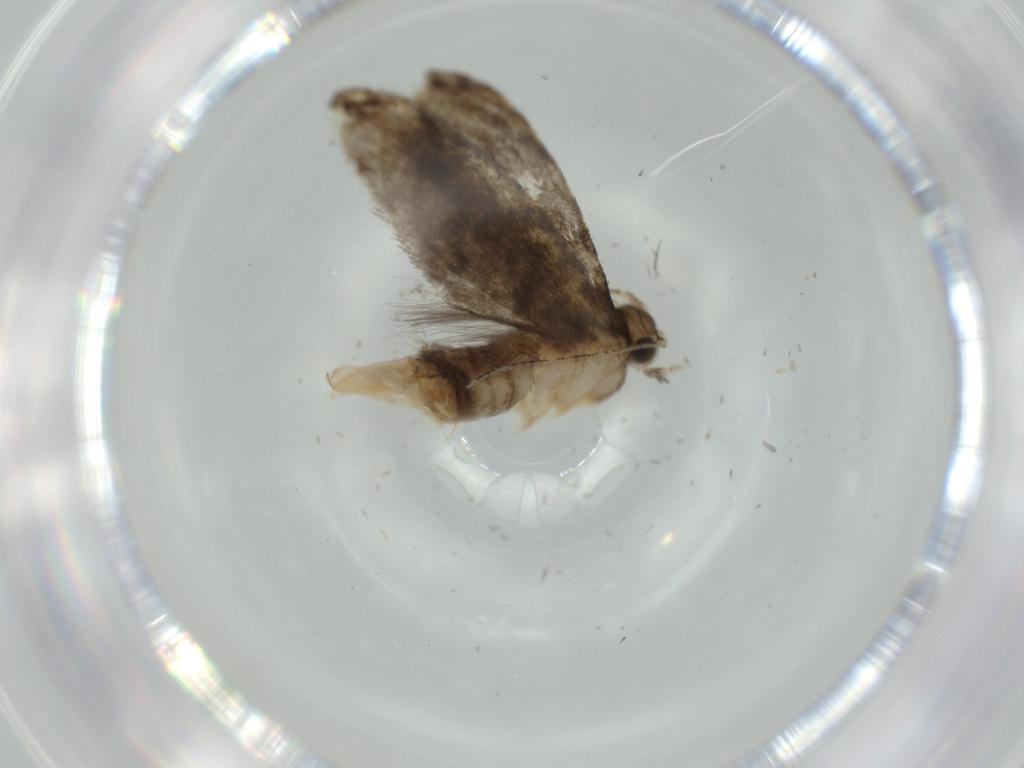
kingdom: Animalia
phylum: Arthropoda
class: Insecta
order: Lepidoptera
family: Tineidae
